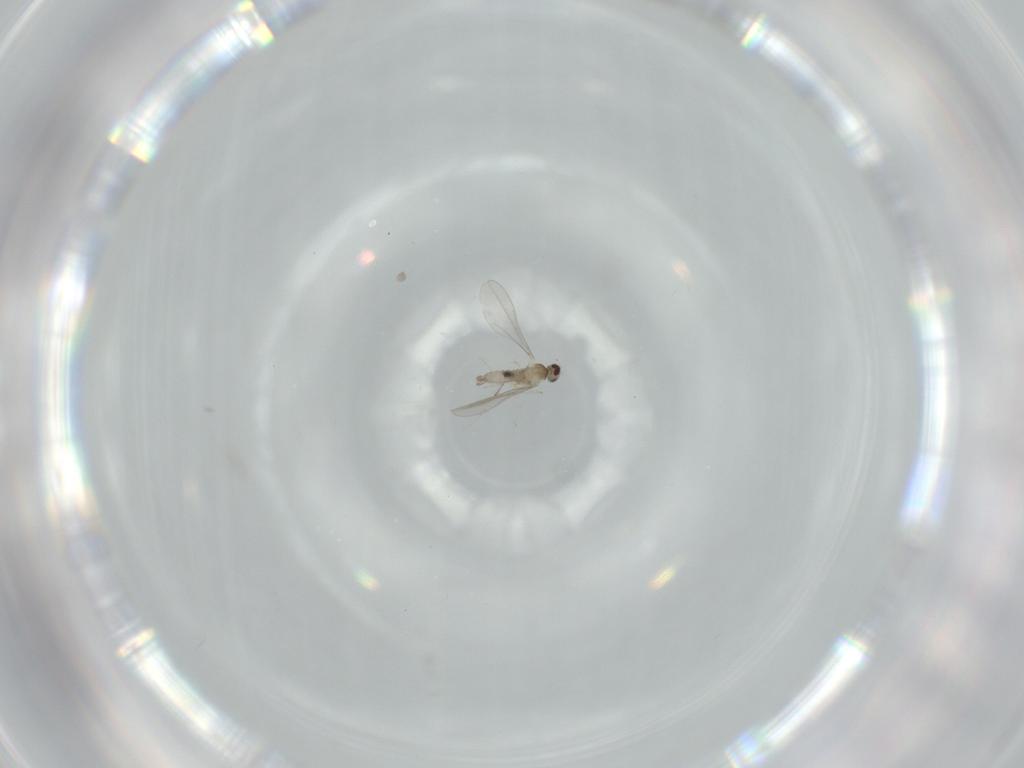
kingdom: Animalia
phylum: Arthropoda
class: Insecta
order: Diptera
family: Cecidomyiidae
